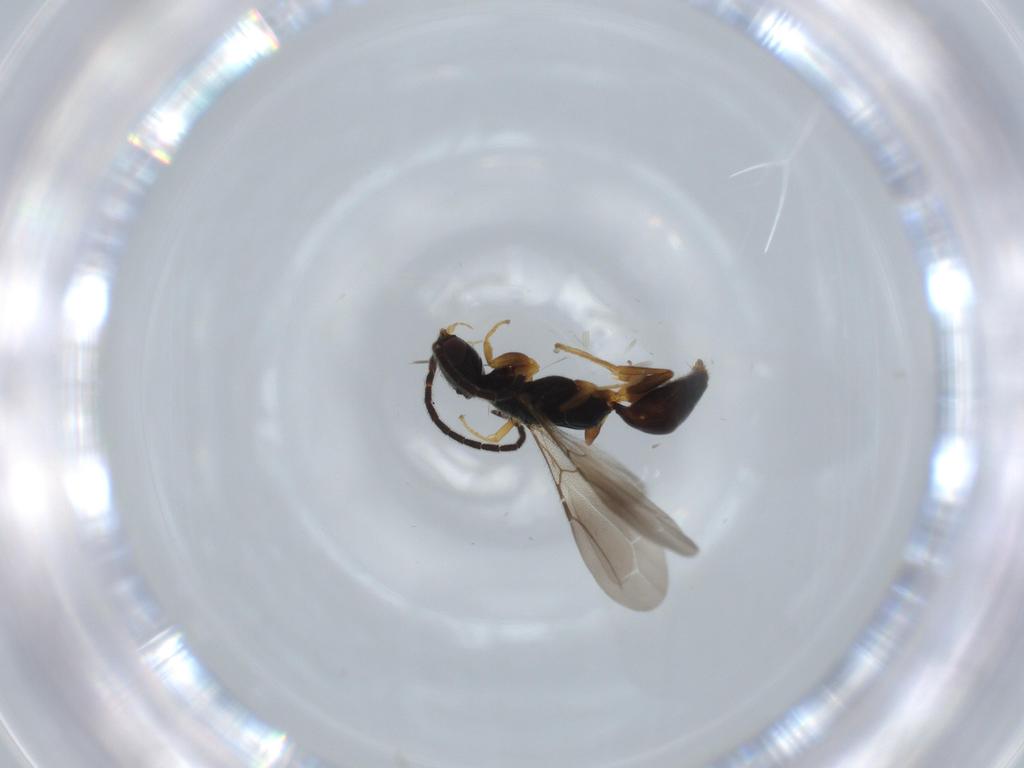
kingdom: Animalia
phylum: Arthropoda
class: Insecta
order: Hymenoptera
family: Bethylidae
